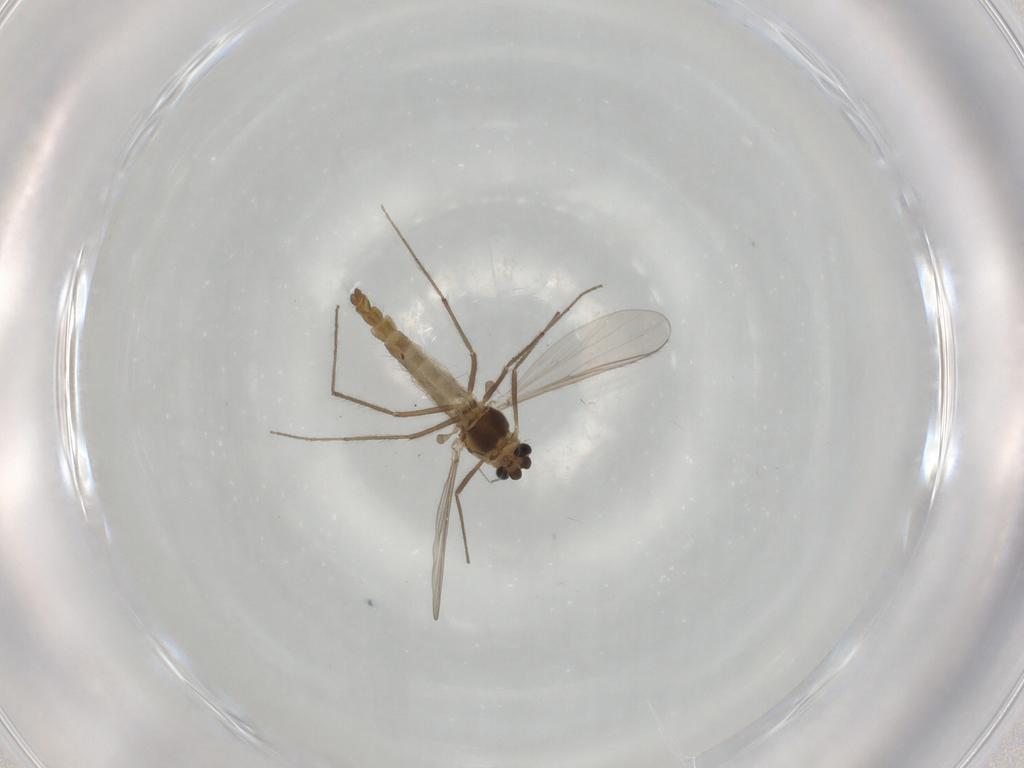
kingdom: Animalia
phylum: Arthropoda
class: Insecta
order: Diptera
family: Chironomidae
